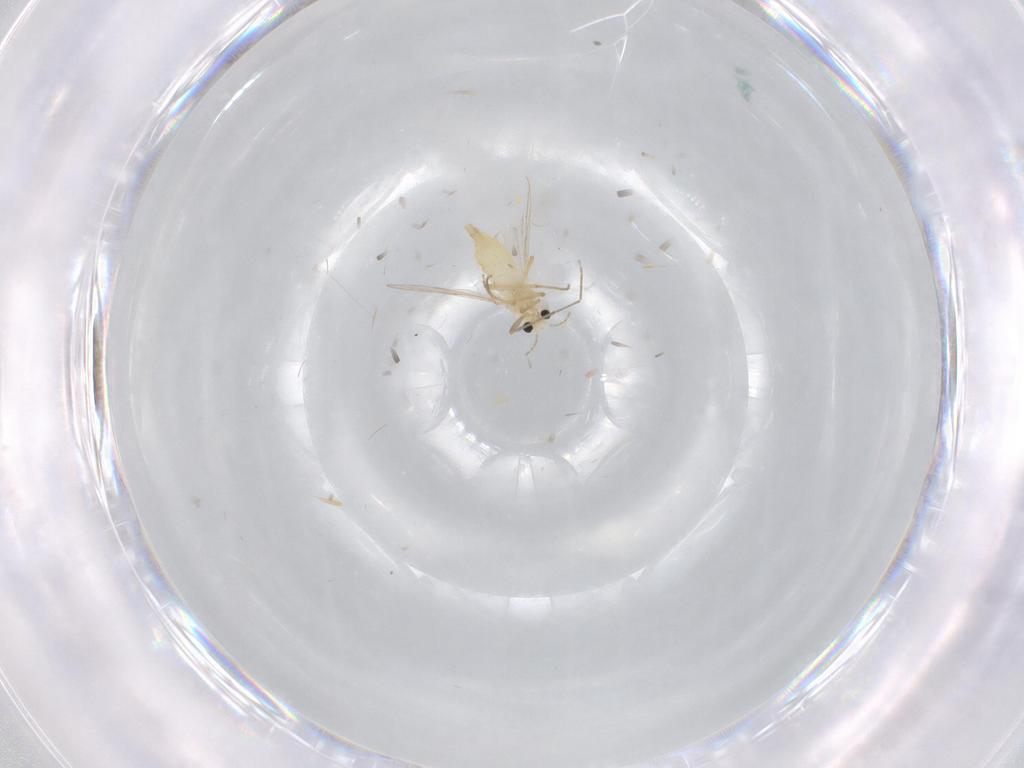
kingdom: Animalia
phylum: Arthropoda
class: Insecta
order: Diptera
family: Chironomidae
